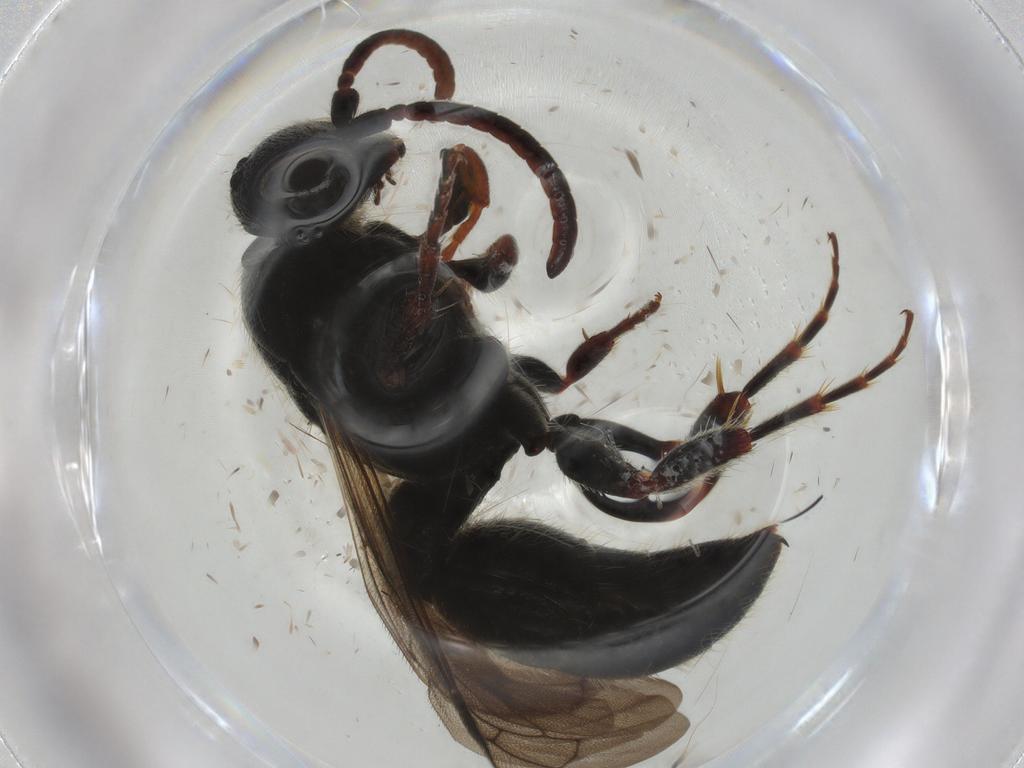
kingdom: Animalia
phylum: Arthropoda
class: Insecta
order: Hymenoptera
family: Tiphiidae
